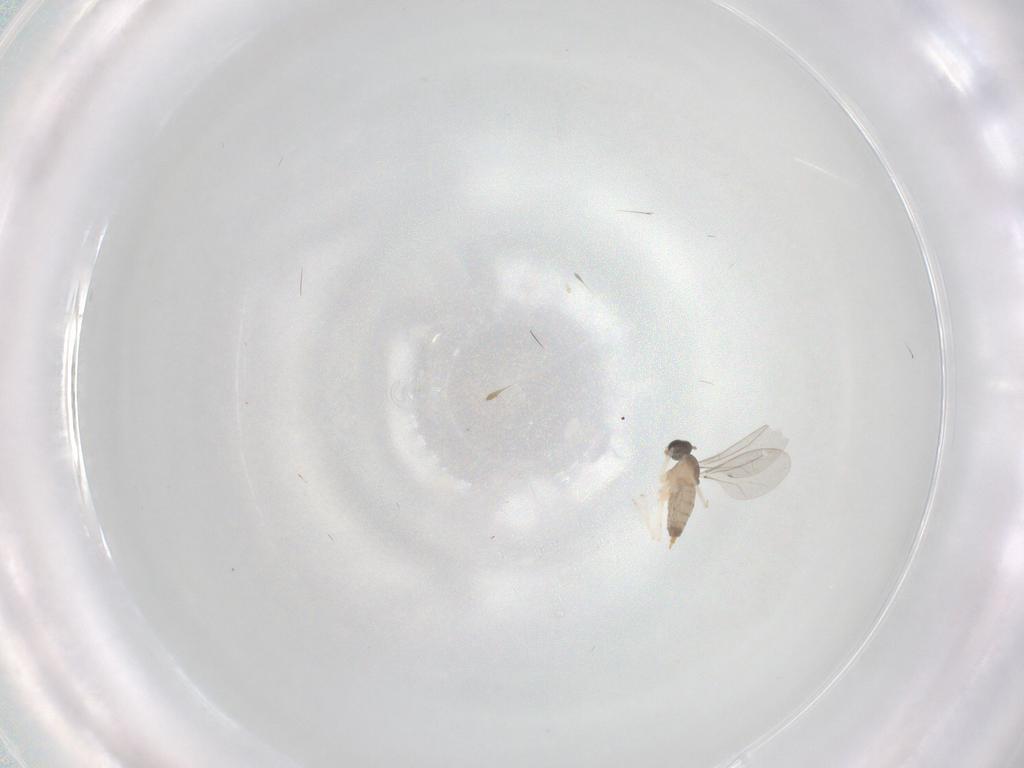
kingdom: Animalia
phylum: Arthropoda
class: Insecta
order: Diptera
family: Cecidomyiidae
